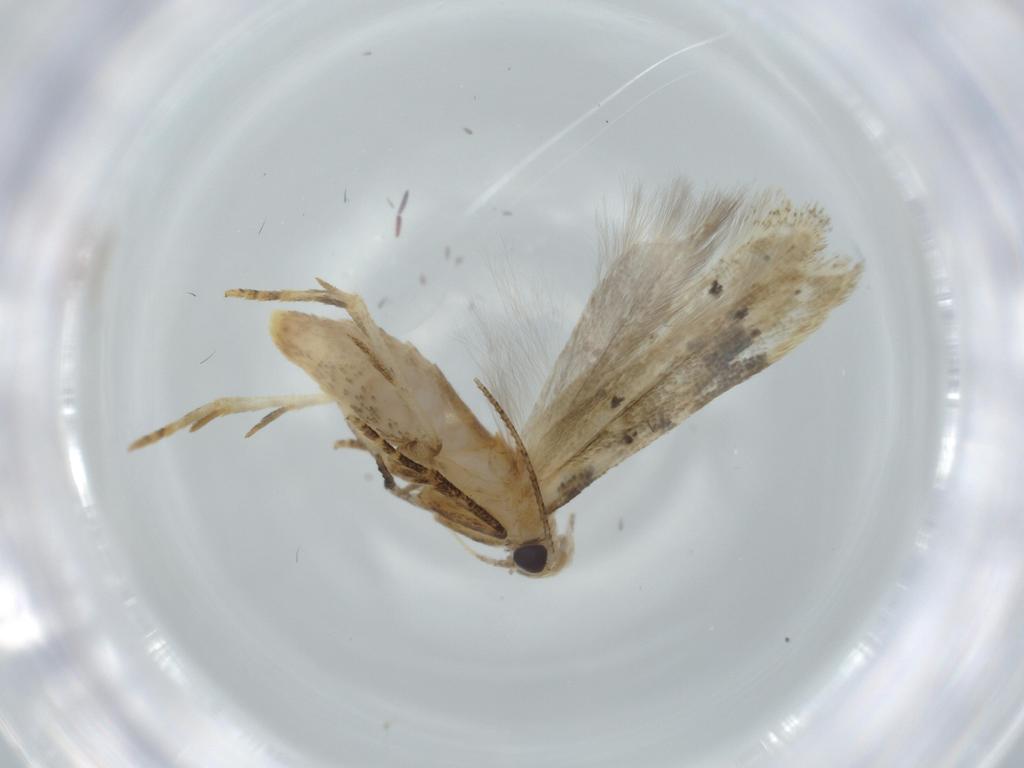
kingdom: Animalia
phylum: Arthropoda
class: Insecta
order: Lepidoptera
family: Coleophoridae
